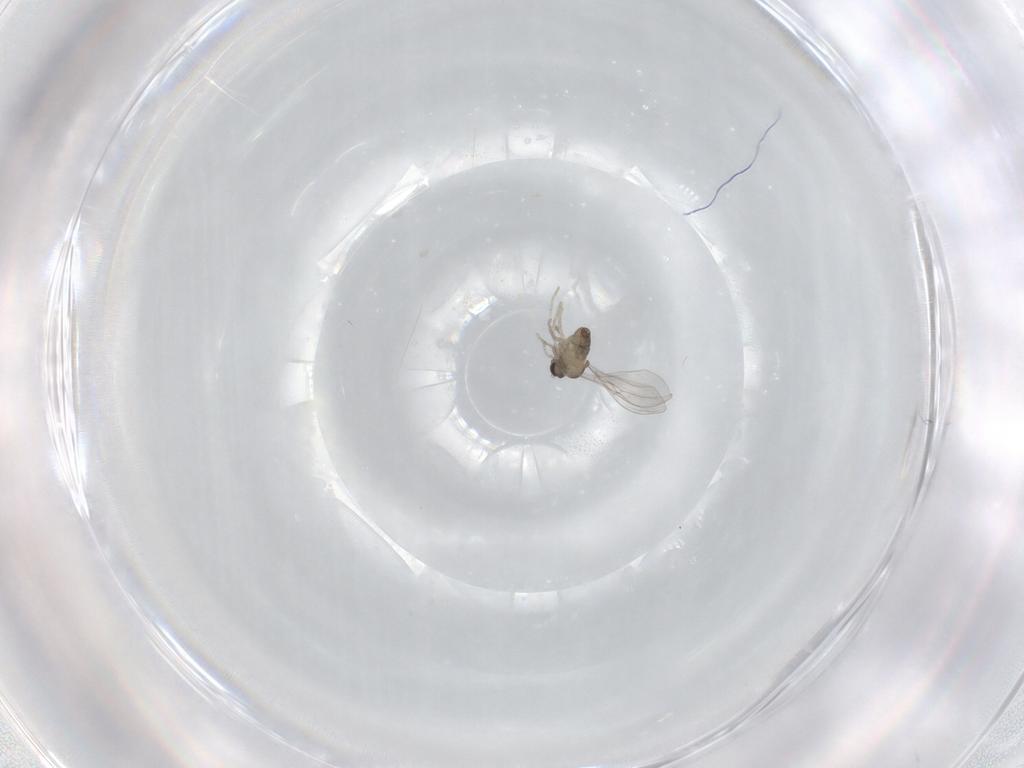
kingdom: Animalia
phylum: Arthropoda
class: Insecta
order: Diptera
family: Cecidomyiidae
